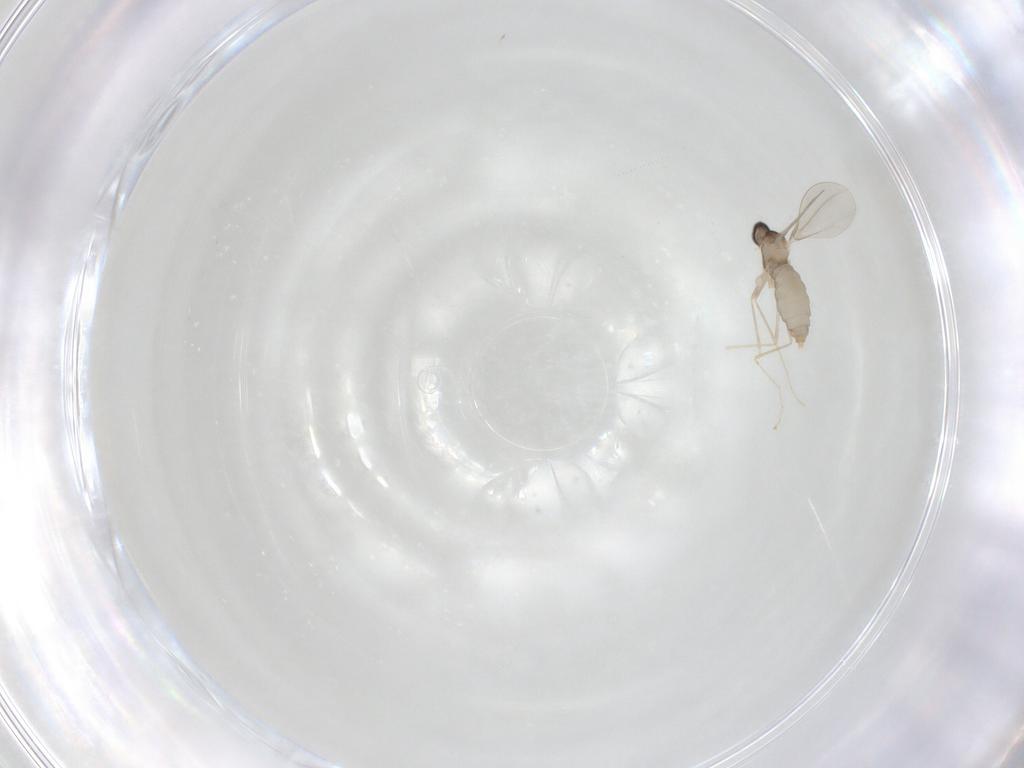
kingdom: Animalia
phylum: Arthropoda
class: Insecta
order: Diptera
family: Cecidomyiidae
